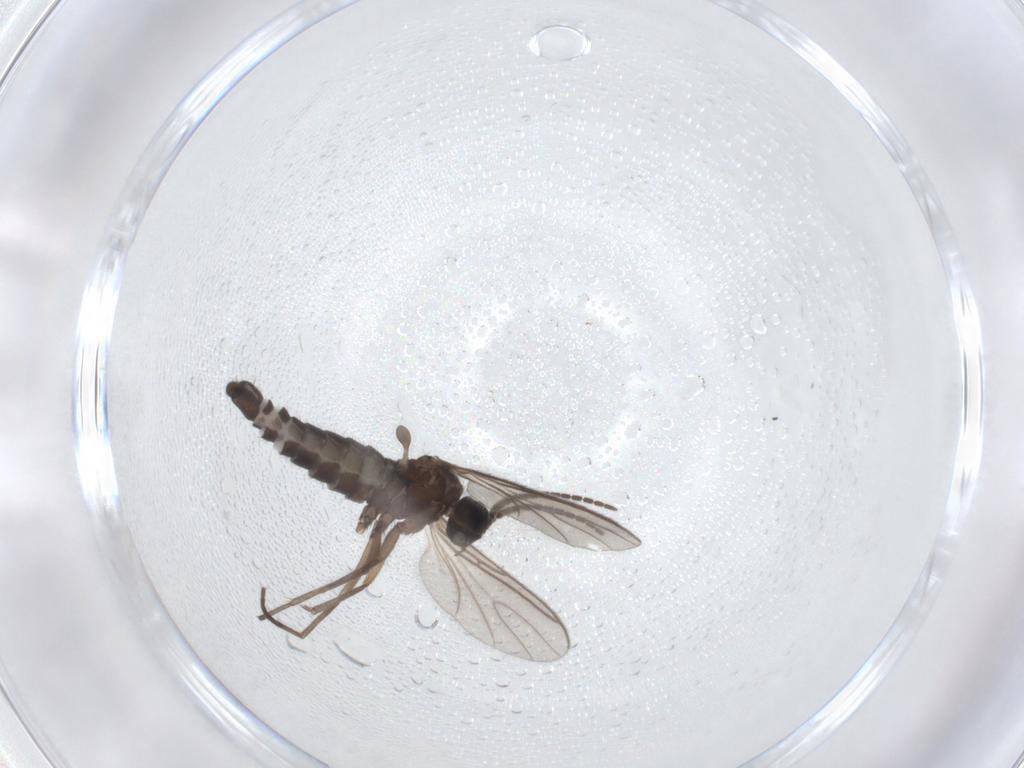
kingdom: Animalia
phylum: Arthropoda
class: Insecta
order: Diptera
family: Sciaridae
